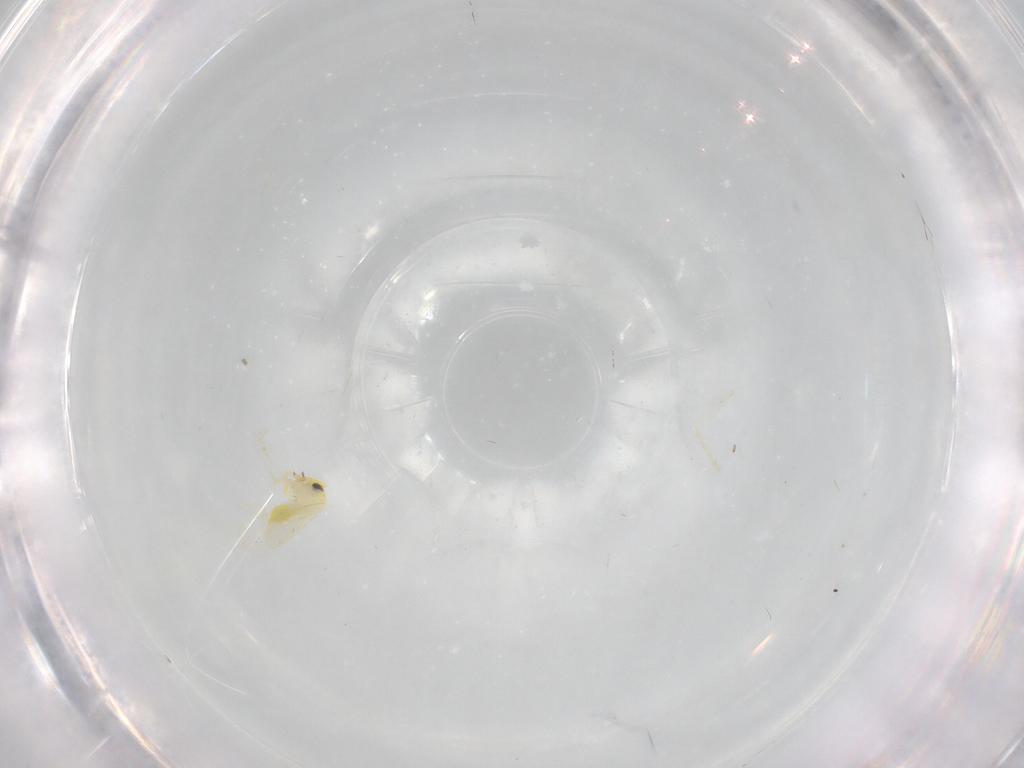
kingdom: Animalia
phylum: Arthropoda
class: Insecta
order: Hemiptera
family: Aleyrodidae
